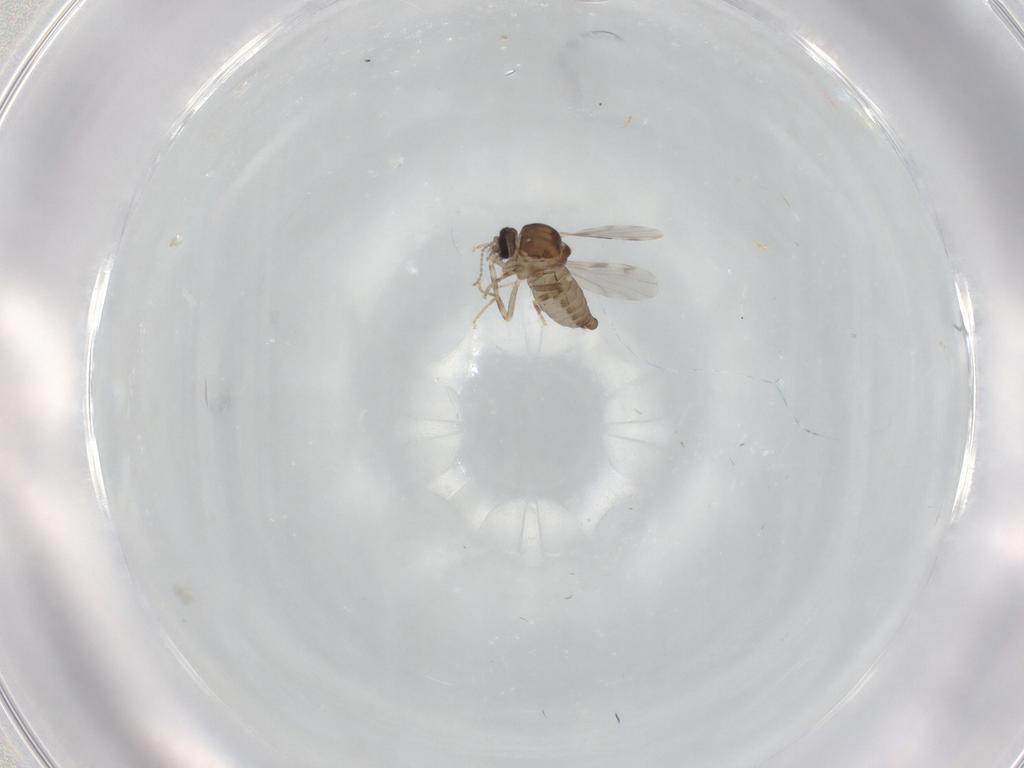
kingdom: Animalia
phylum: Arthropoda
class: Insecta
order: Diptera
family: Ceratopogonidae
